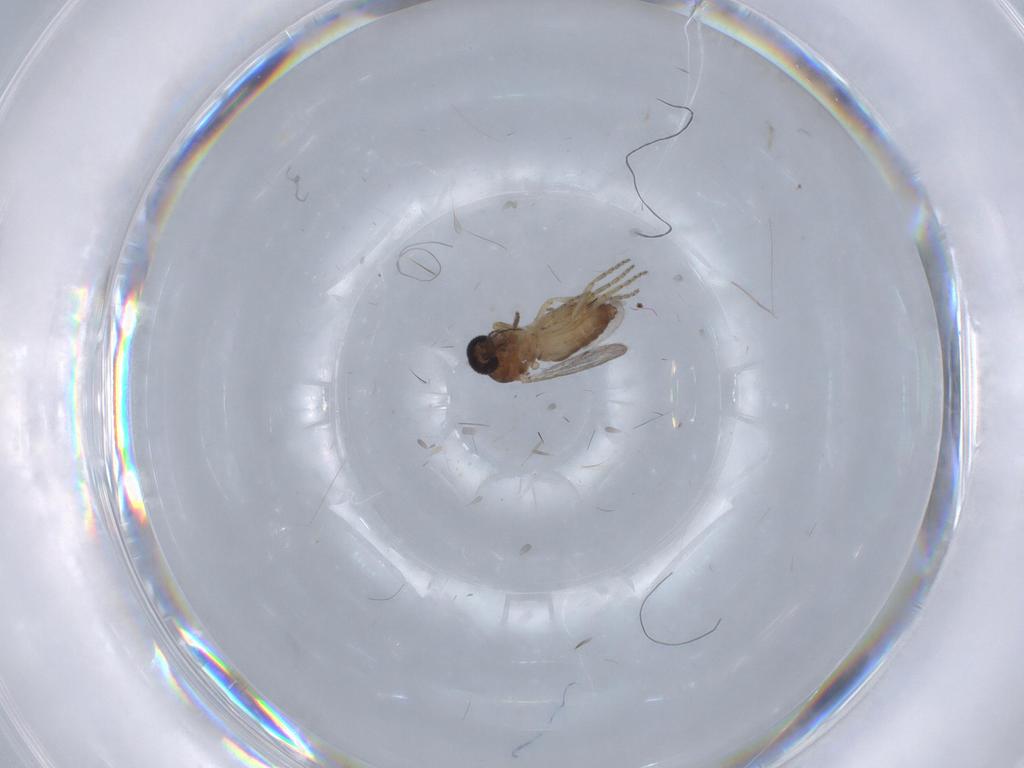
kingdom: Animalia
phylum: Arthropoda
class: Insecta
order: Diptera
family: Ceratopogonidae
